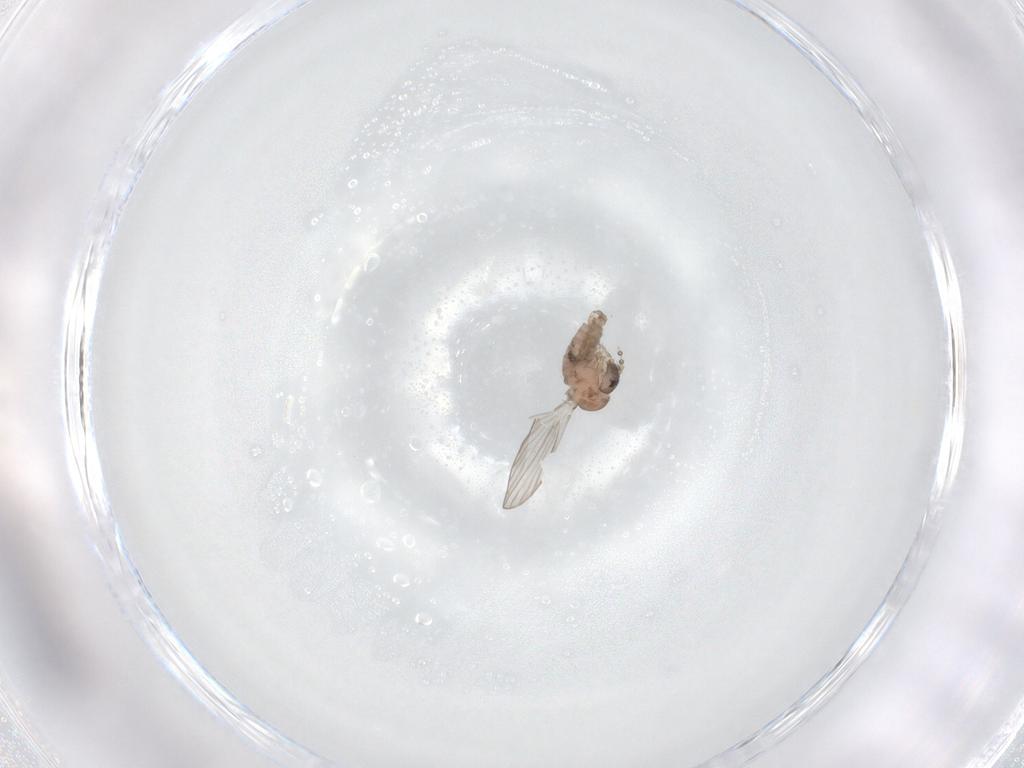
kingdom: Animalia
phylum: Arthropoda
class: Insecta
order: Diptera
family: Psychodidae
